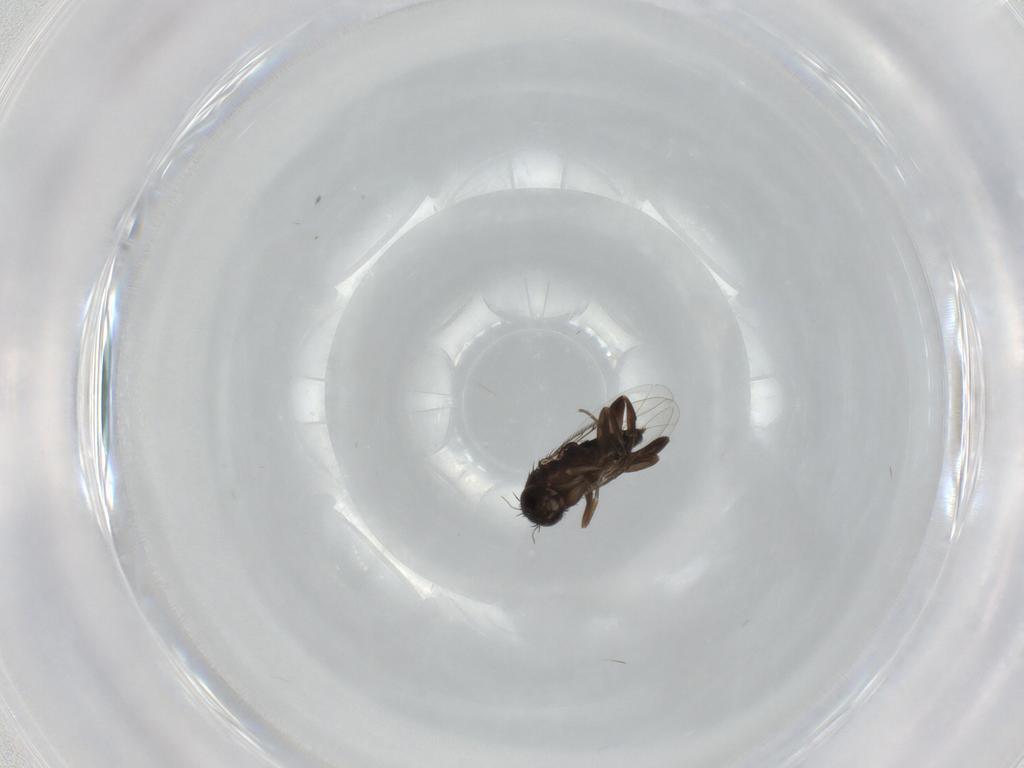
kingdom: Animalia
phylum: Arthropoda
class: Insecta
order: Diptera
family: Phoridae
